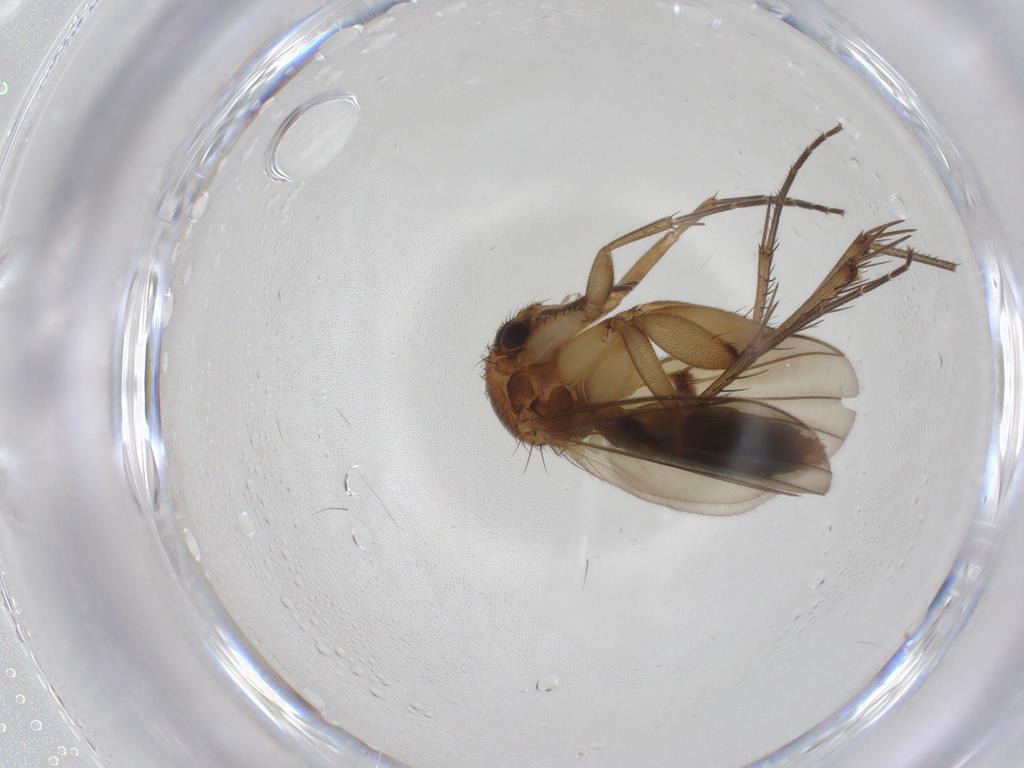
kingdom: Animalia
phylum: Arthropoda
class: Insecta
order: Diptera
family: Mycetophilidae
